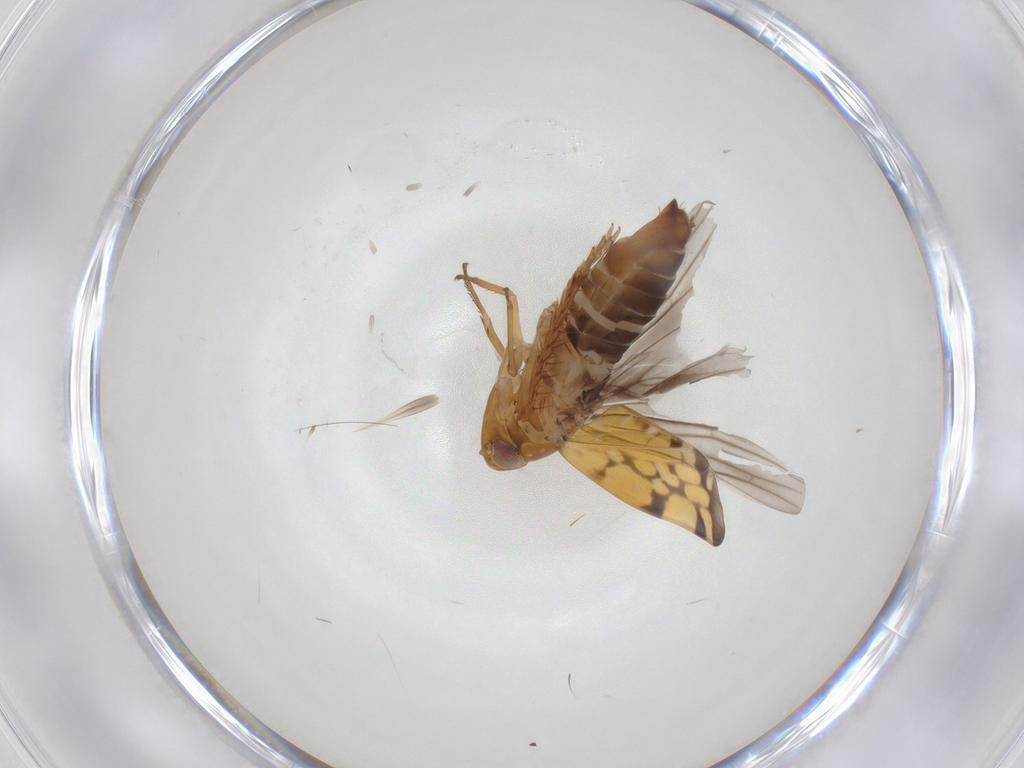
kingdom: Animalia
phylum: Arthropoda
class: Insecta
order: Hemiptera
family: Cicadellidae
